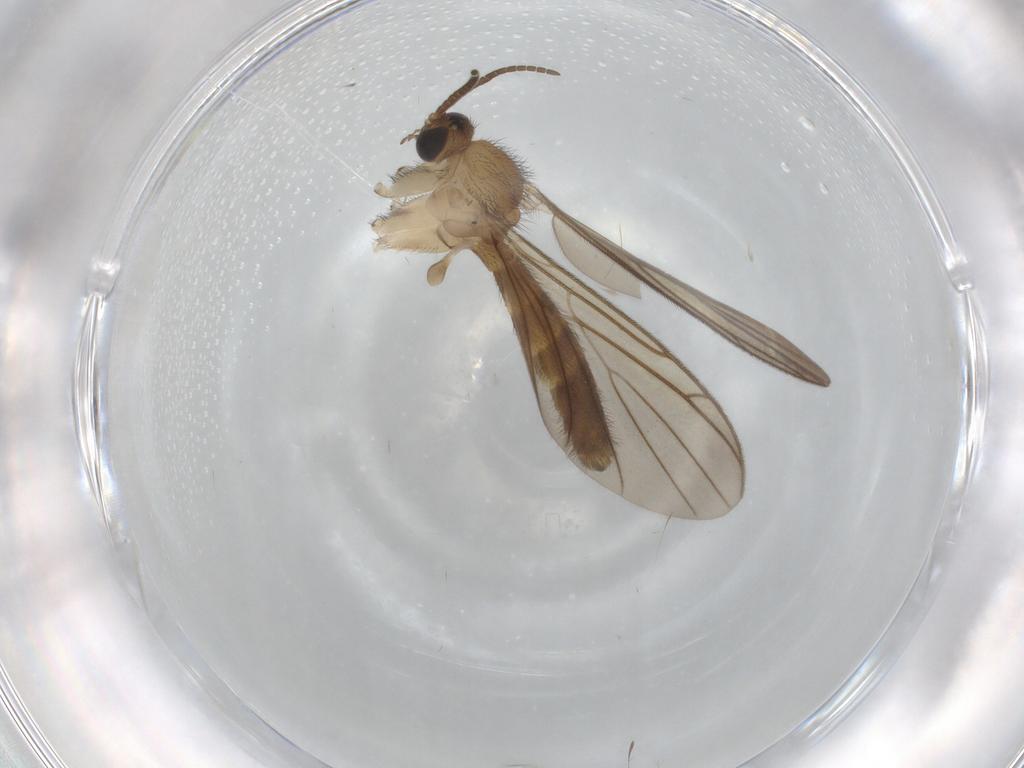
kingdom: Animalia
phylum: Arthropoda
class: Insecta
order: Diptera
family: Cecidomyiidae
